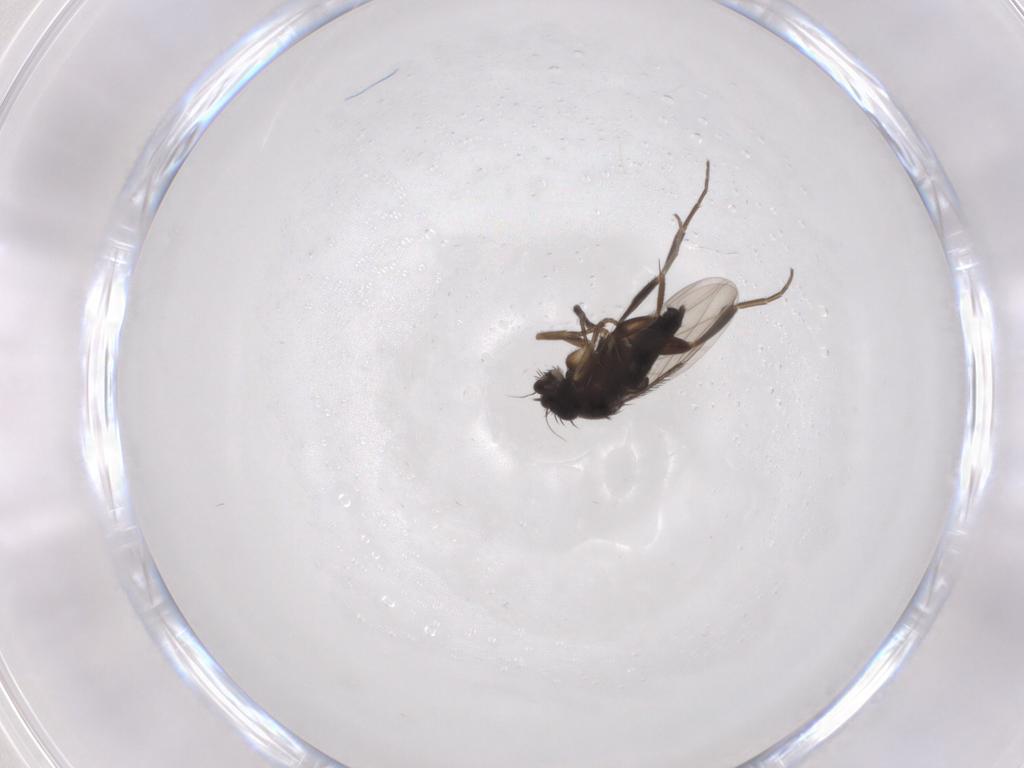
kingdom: Animalia
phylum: Arthropoda
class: Insecta
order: Diptera
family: Phoridae
